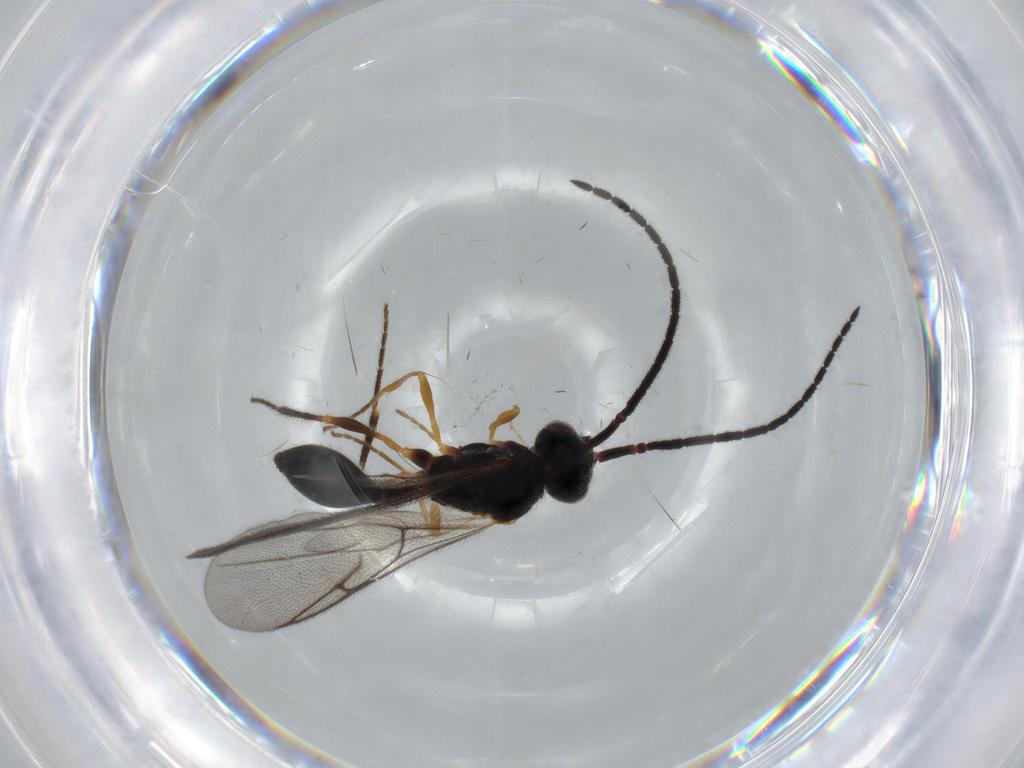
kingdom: Animalia
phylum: Arthropoda
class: Insecta
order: Hymenoptera
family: Diapriidae
